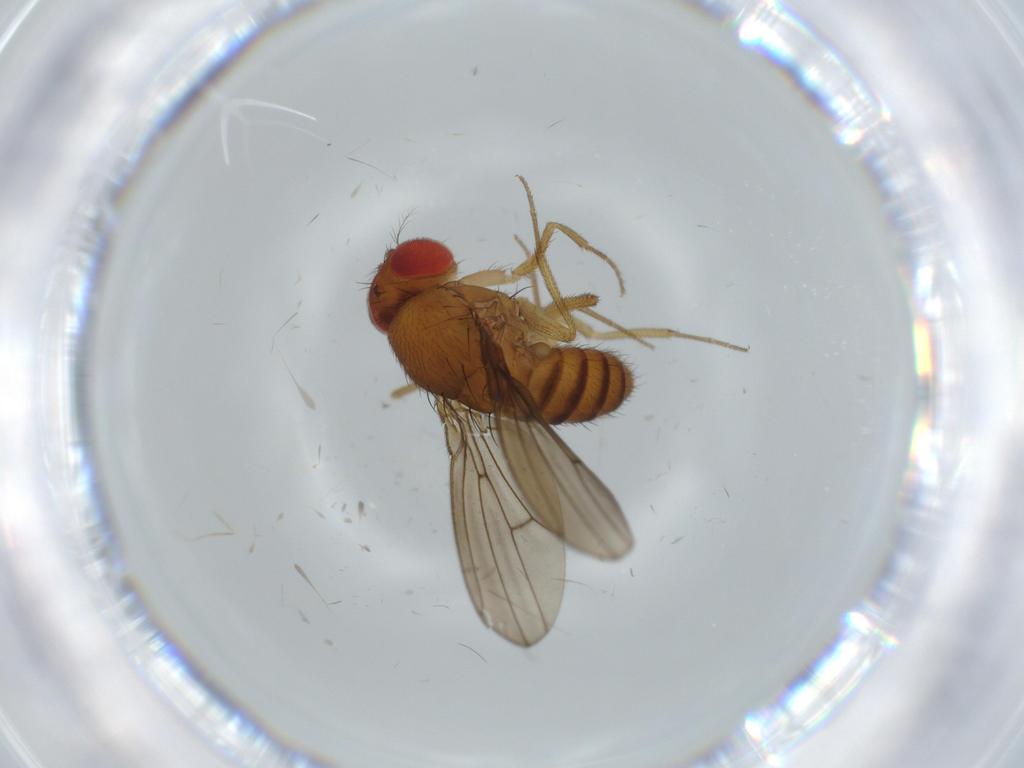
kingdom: Animalia
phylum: Arthropoda
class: Insecta
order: Diptera
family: Drosophilidae
